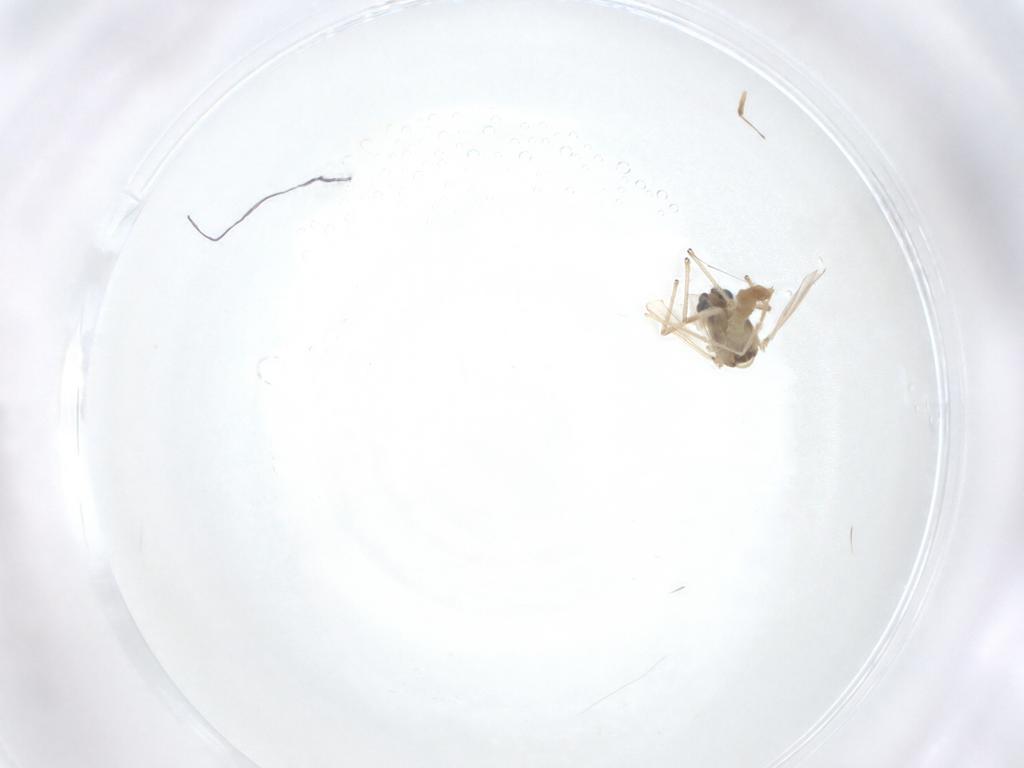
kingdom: Animalia
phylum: Arthropoda
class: Insecta
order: Diptera
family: Chironomidae
